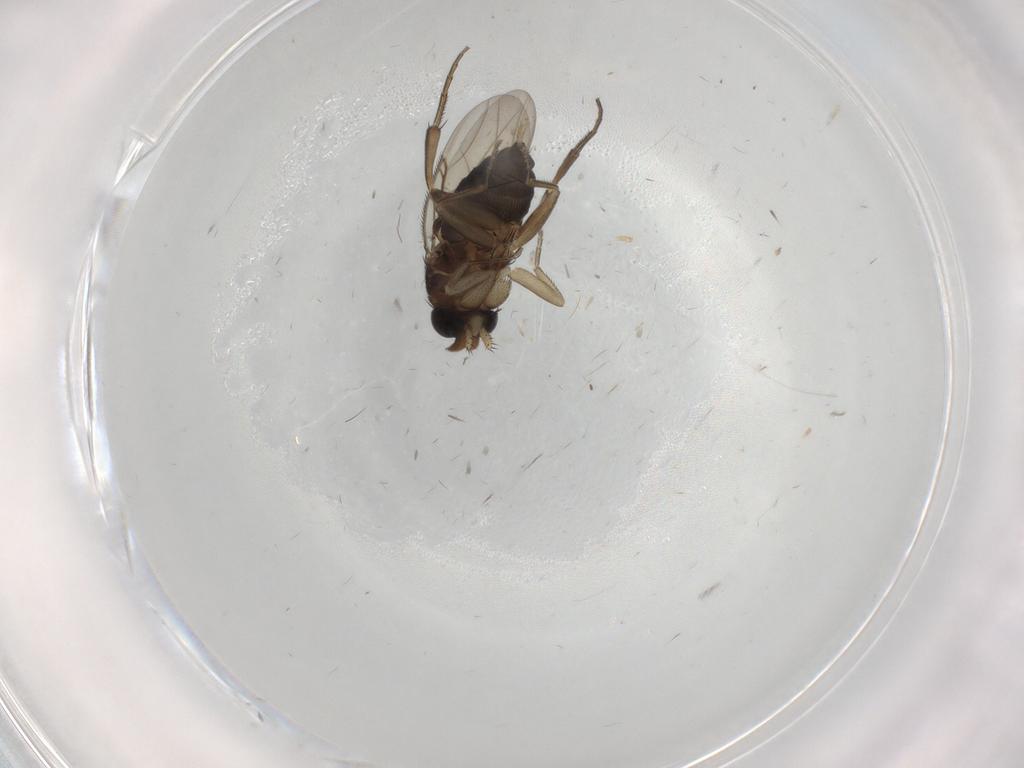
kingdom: Animalia
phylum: Arthropoda
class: Insecta
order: Diptera
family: Phoridae
